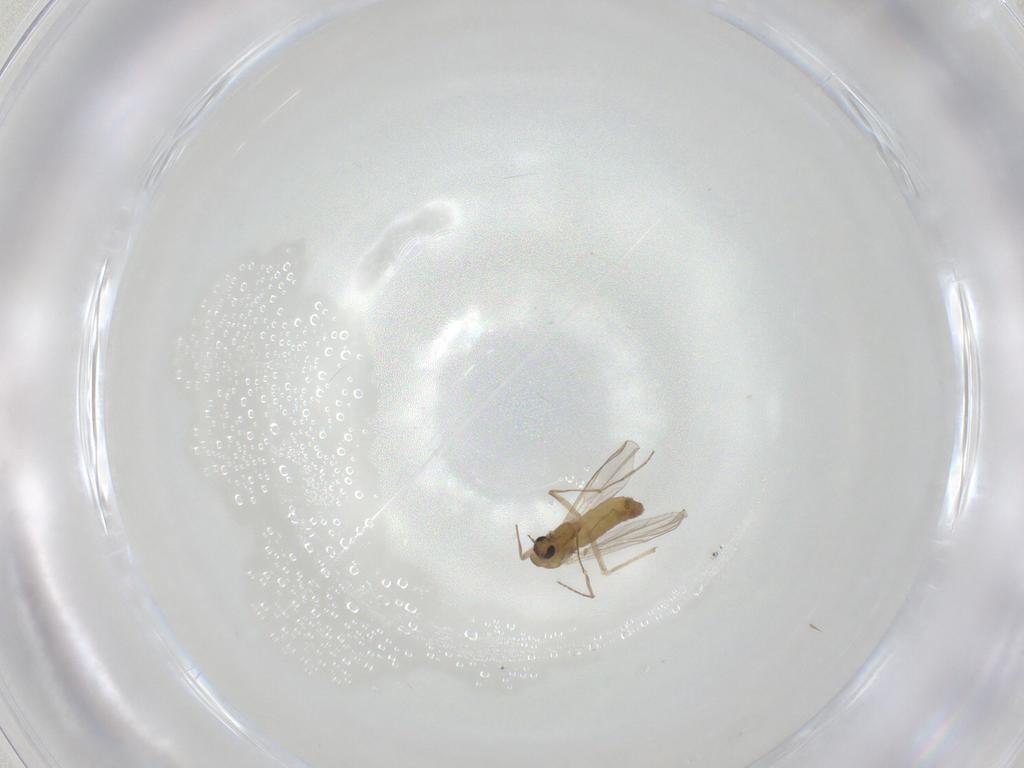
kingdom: Animalia
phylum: Arthropoda
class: Insecta
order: Diptera
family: Chironomidae
